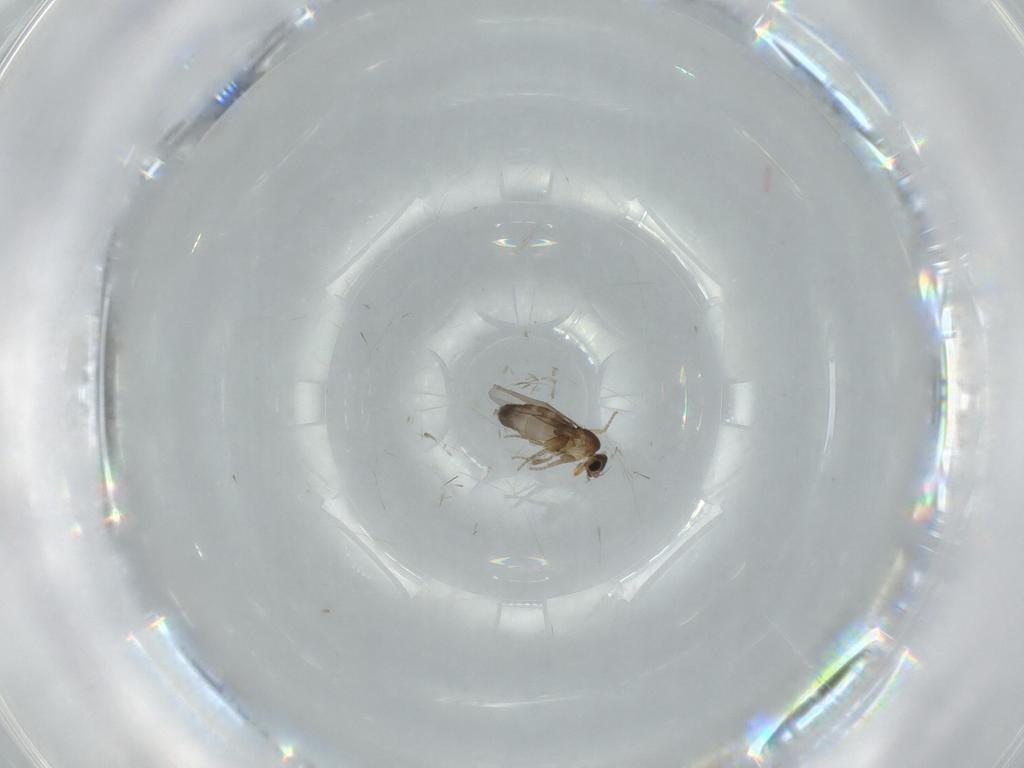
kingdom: Animalia
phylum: Arthropoda
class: Insecta
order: Diptera
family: Phoridae
